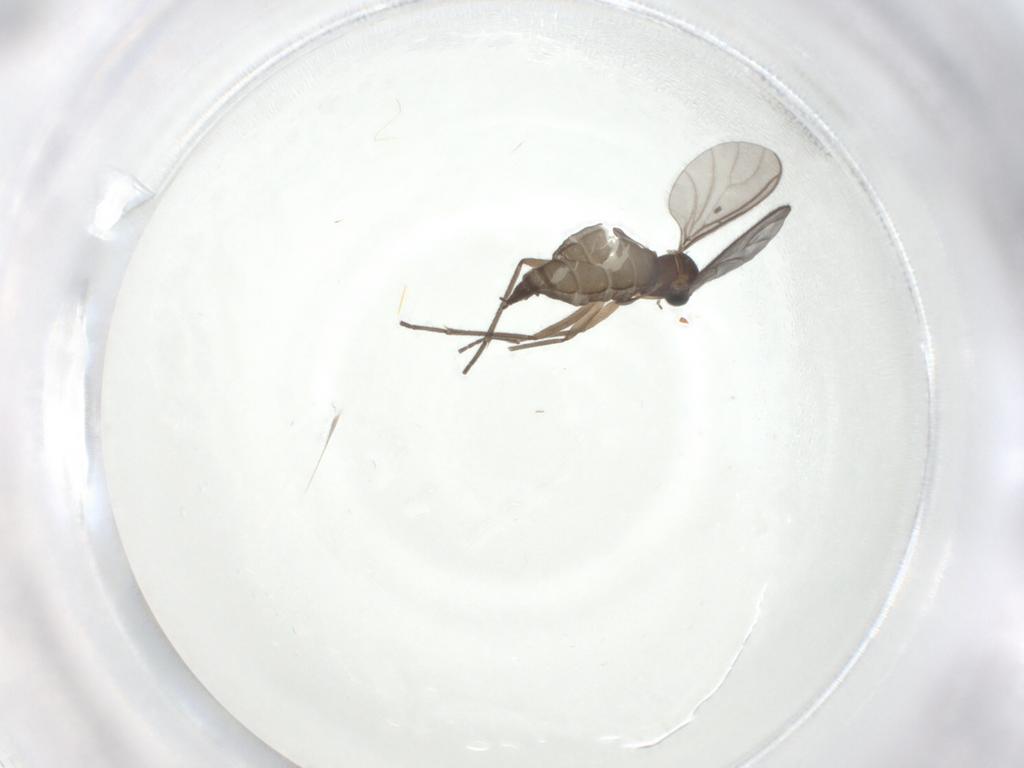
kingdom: Animalia
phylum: Arthropoda
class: Insecta
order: Diptera
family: Sciaridae
